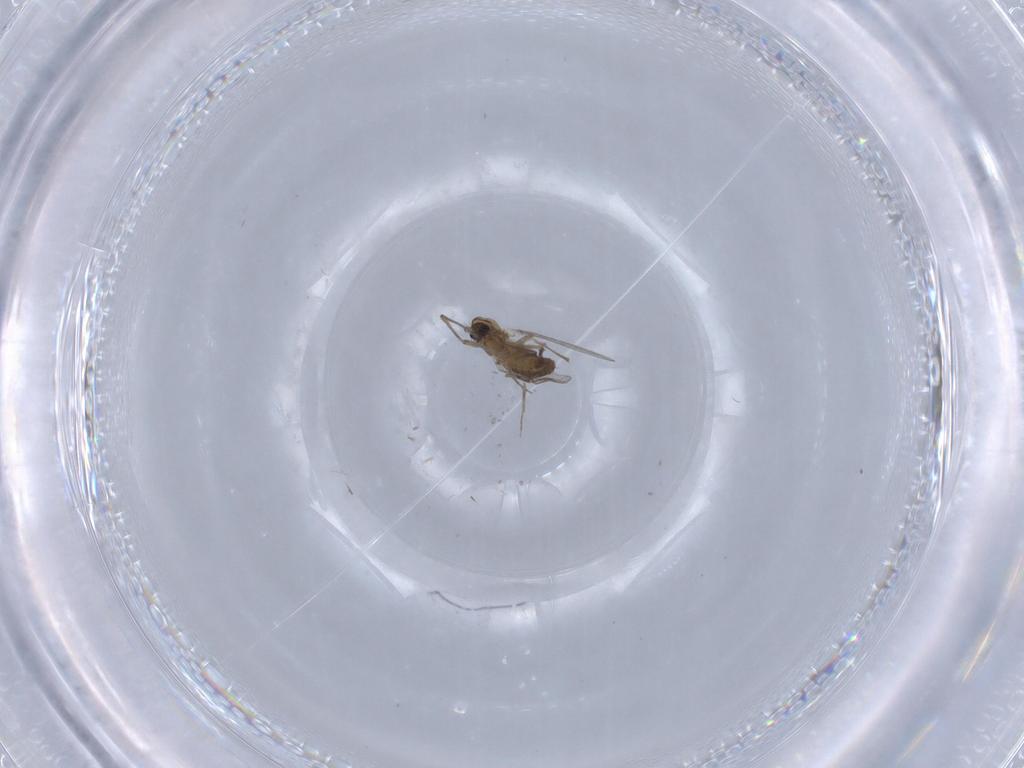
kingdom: Animalia
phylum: Arthropoda
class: Insecta
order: Diptera
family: Chironomidae
